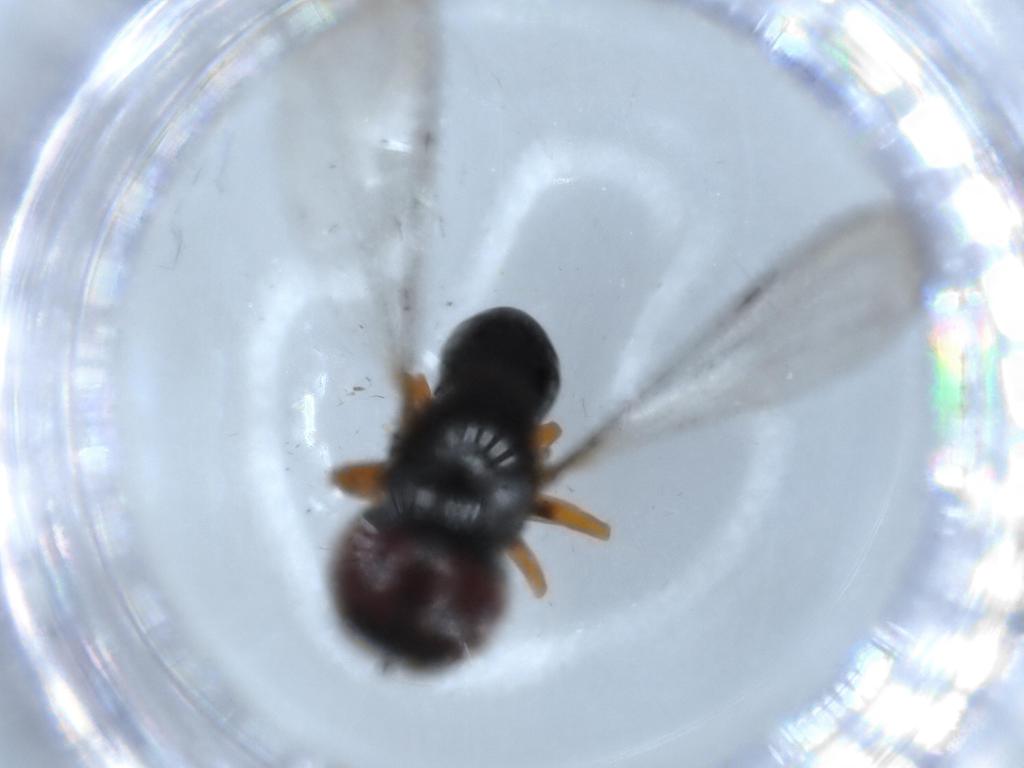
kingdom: Animalia
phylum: Arthropoda
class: Insecta
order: Diptera
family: Pipunculidae
